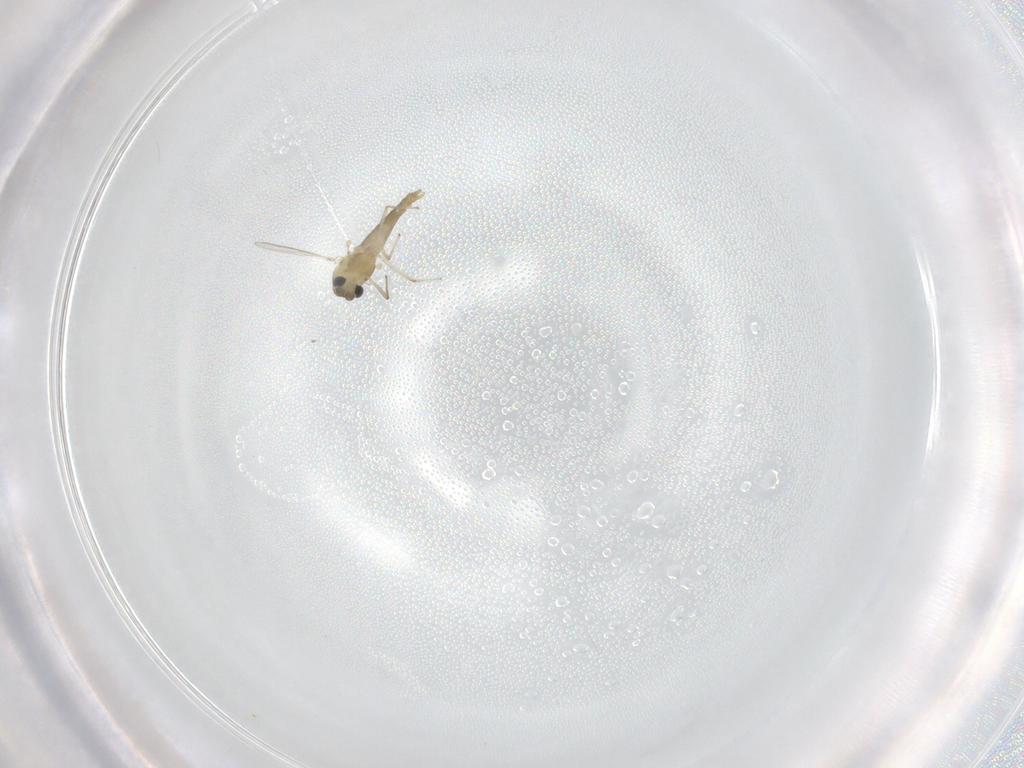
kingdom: Animalia
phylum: Arthropoda
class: Insecta
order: Diptera
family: Chironomidae
